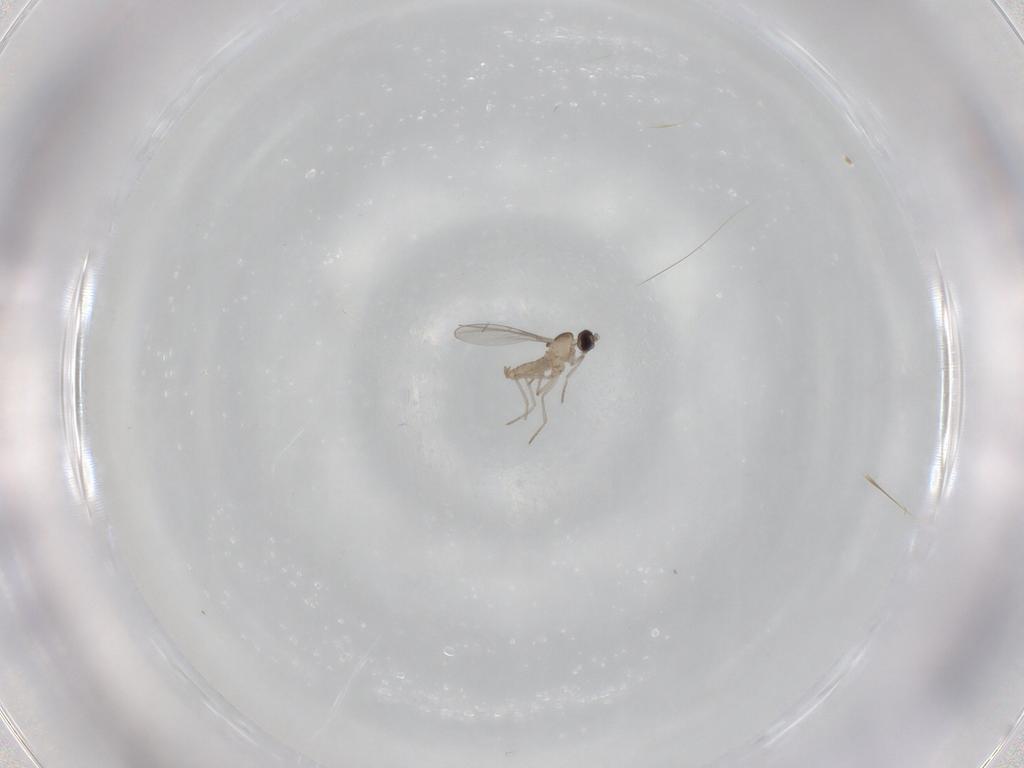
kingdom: Animalia
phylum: Arthropoda
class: Insecta
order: Diptera
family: Cecidomyiidae
